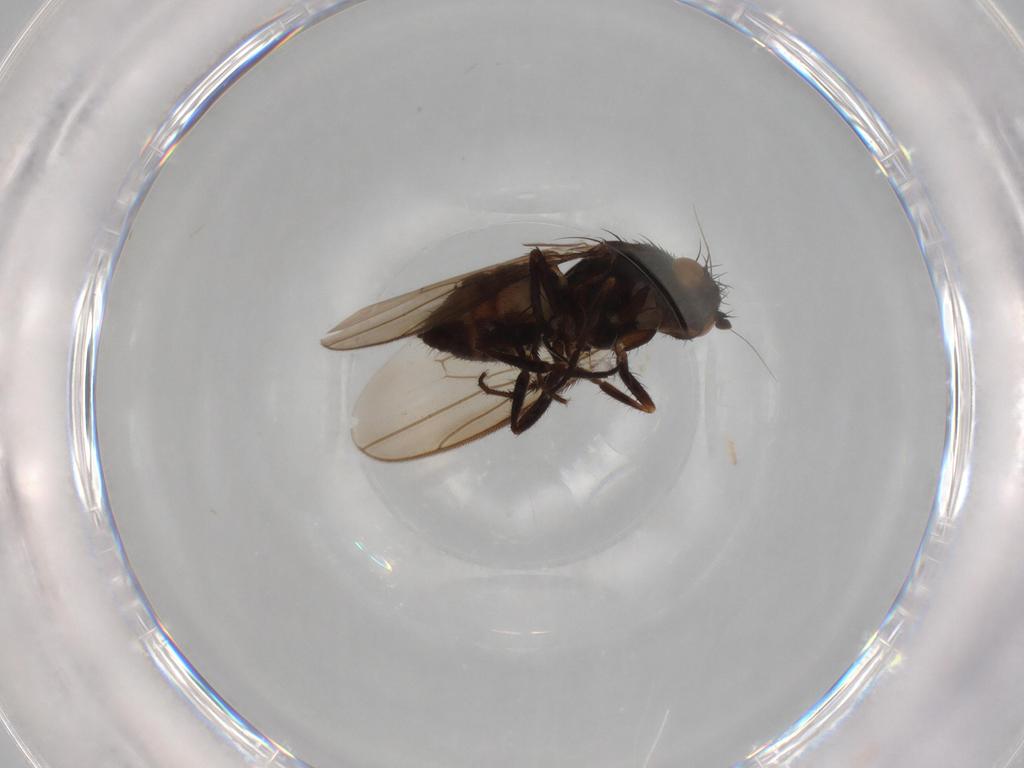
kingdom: Animalia
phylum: Arthropoda
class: Insecta
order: Diptera
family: Sphaeroceridae
